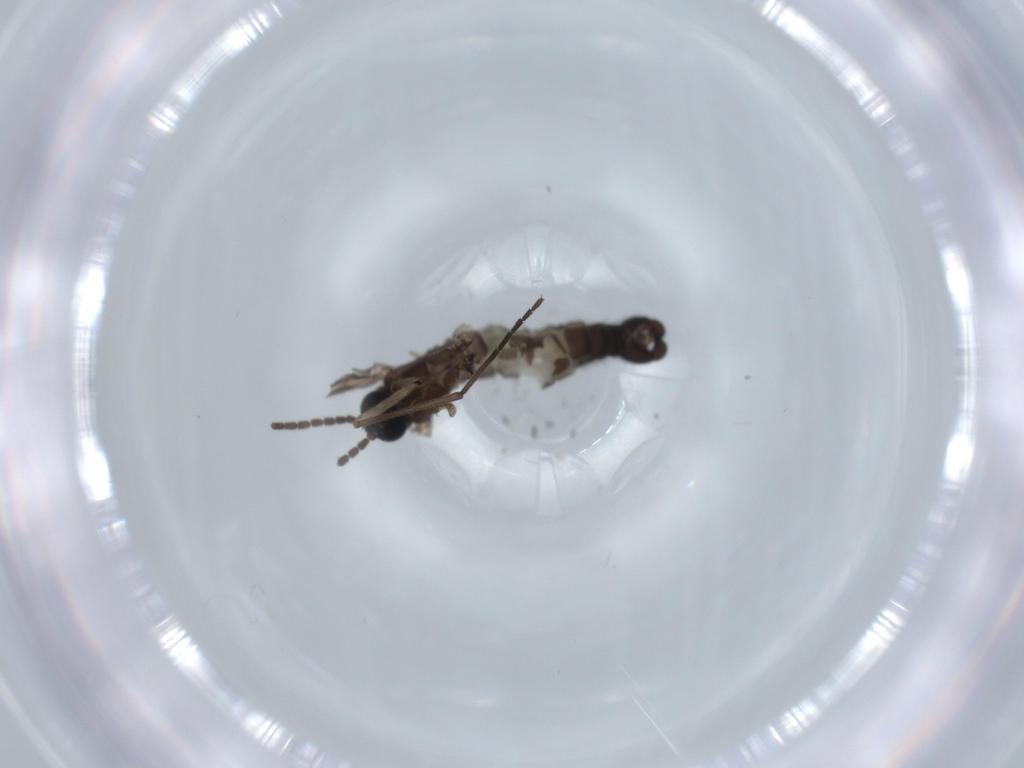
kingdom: Animalia
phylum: Arthropoda
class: Insecta
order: Diptera
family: Sciaridae
